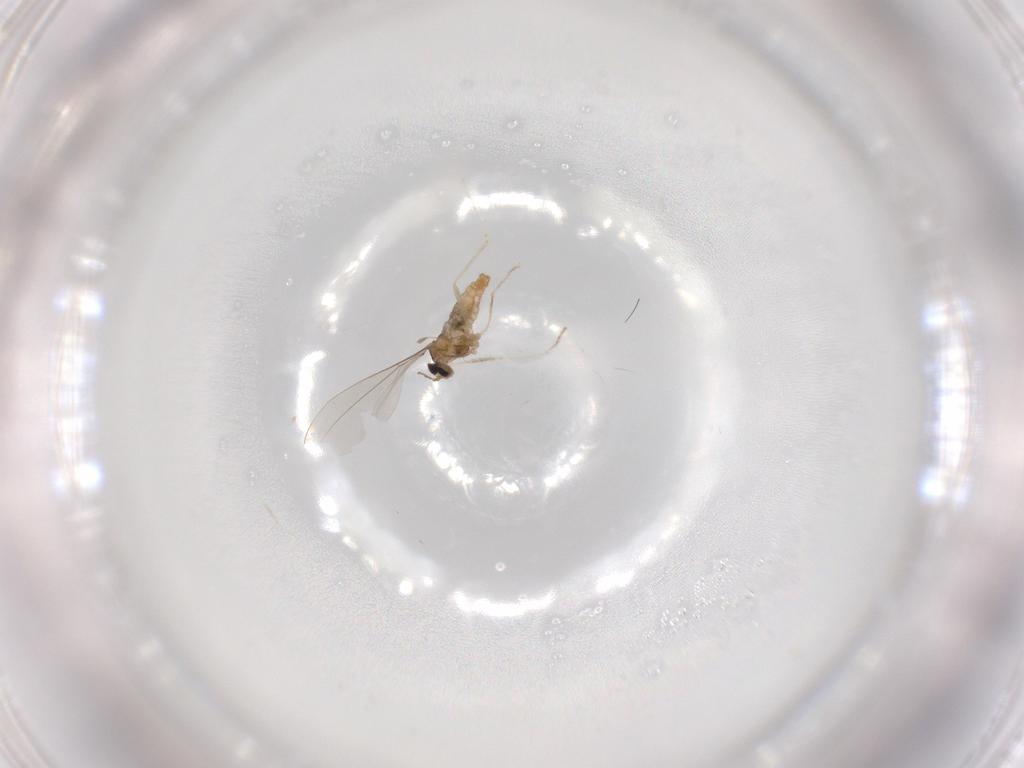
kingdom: Animalia
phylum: Arthropoda
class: Insecta
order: Diptera
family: Cecidomyiidae
